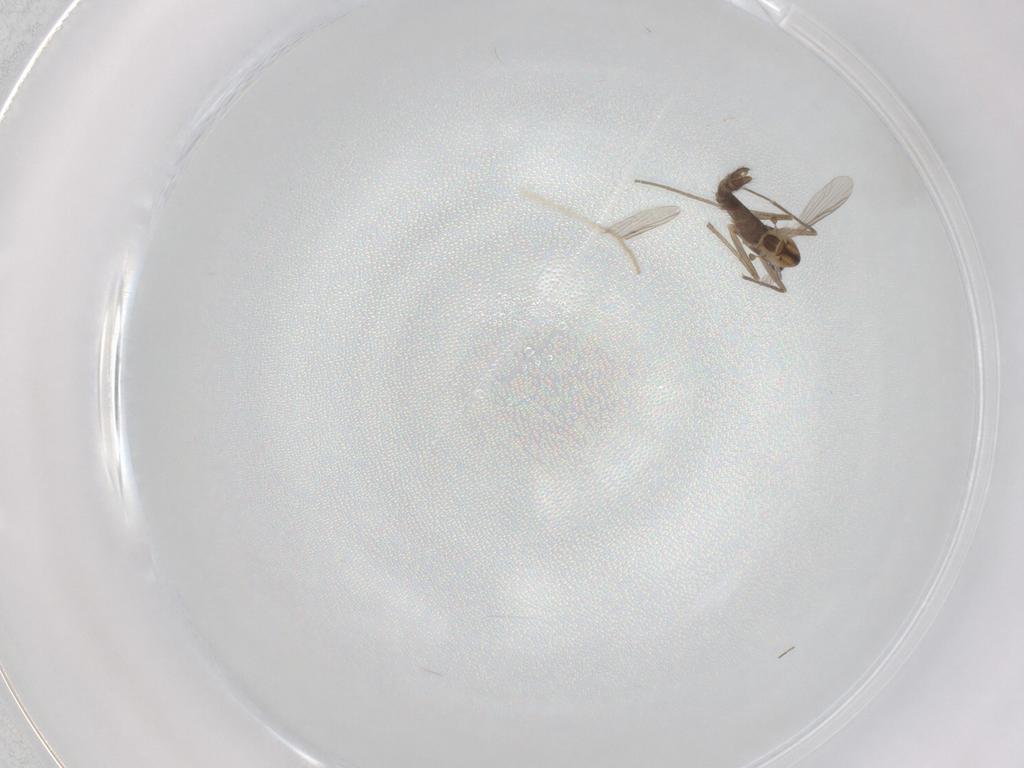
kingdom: Animalia
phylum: Arthropoda
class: Insecta
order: Diptera
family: Chironomidae
